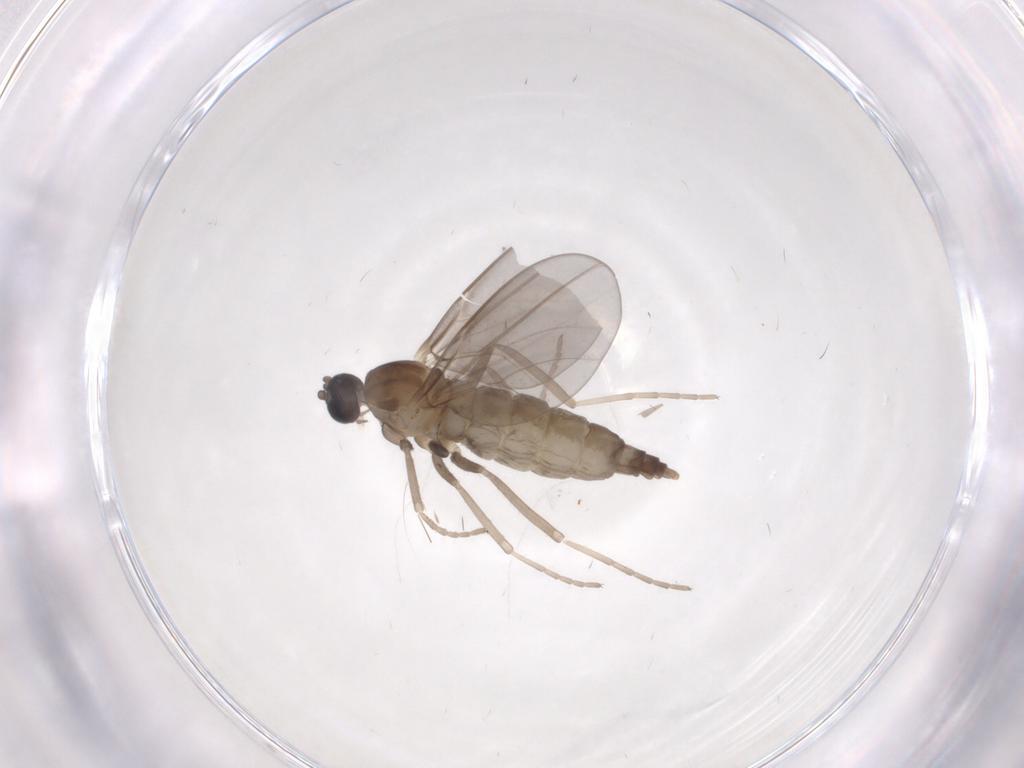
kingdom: Animalia
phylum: Arthropoda
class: Insecta
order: Diptera
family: Cecidomyiidae
